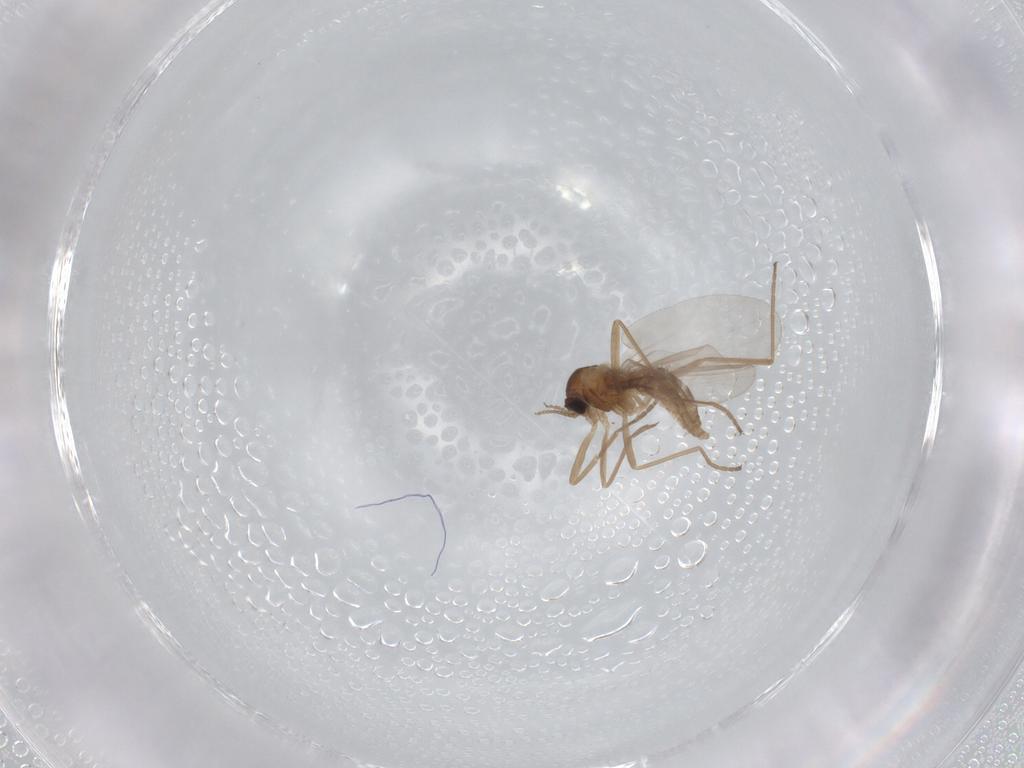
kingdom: Animalia
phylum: Arthropoda
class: Insecta
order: Diptera
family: Cecidomyiidae
